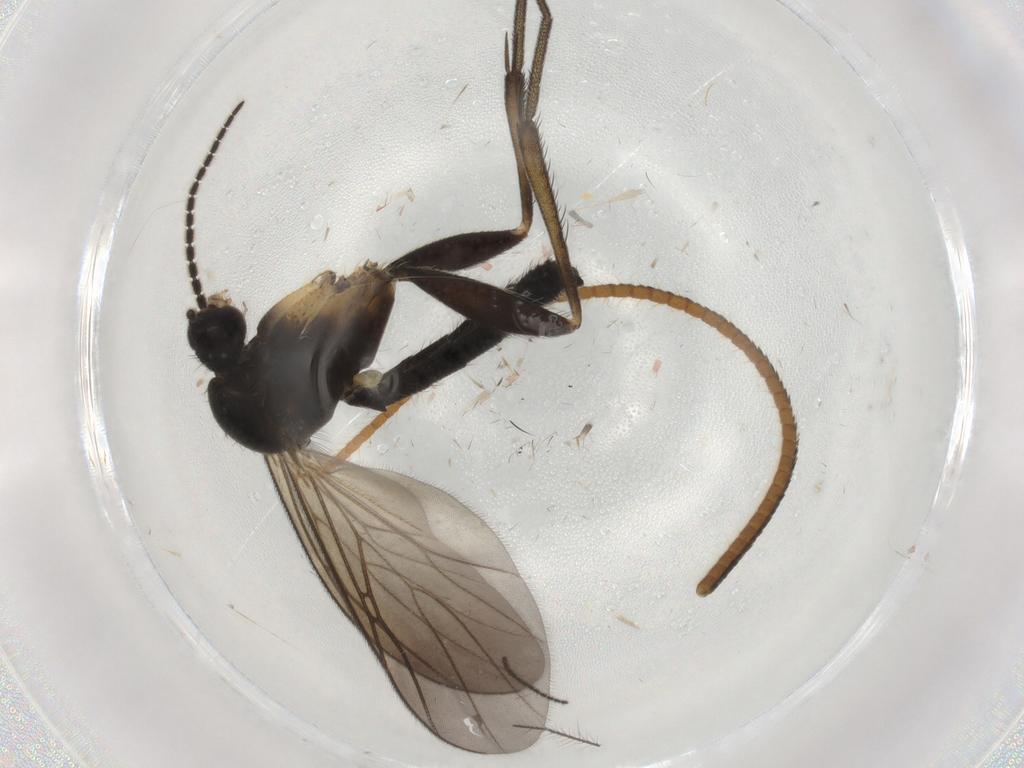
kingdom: Animalia
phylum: Arthropoda
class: Insecta
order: Diptera
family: Mycetophilidae
